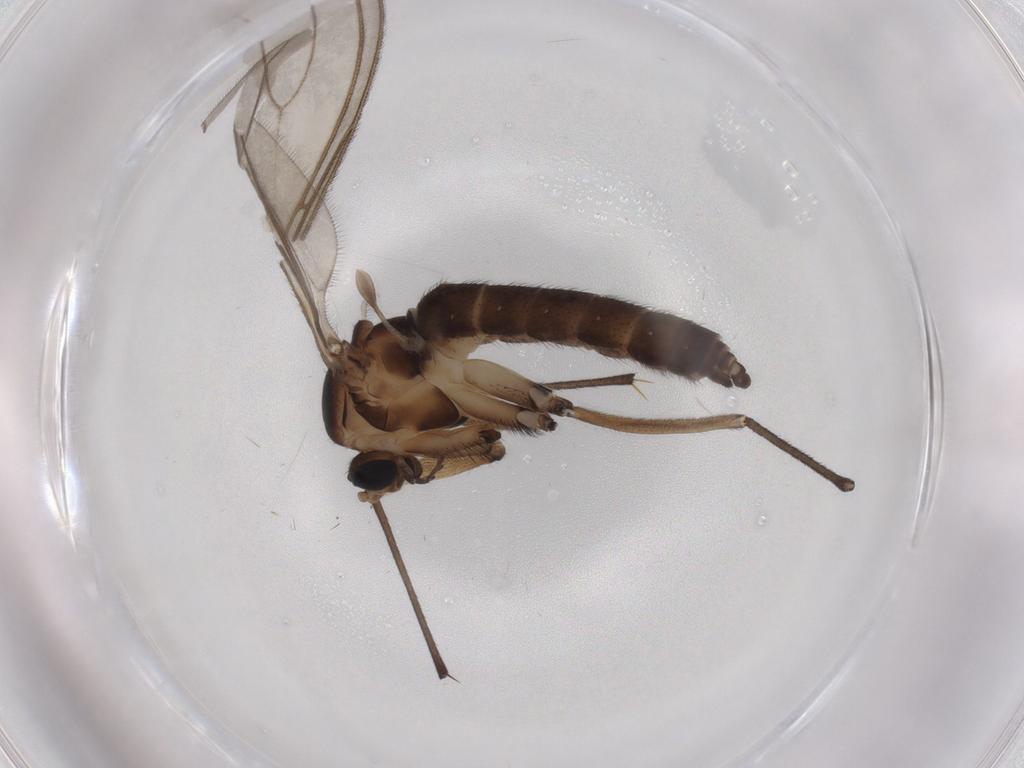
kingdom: Animalia
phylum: Arthropoda
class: Insecta
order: Diptera
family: Sciaridae
